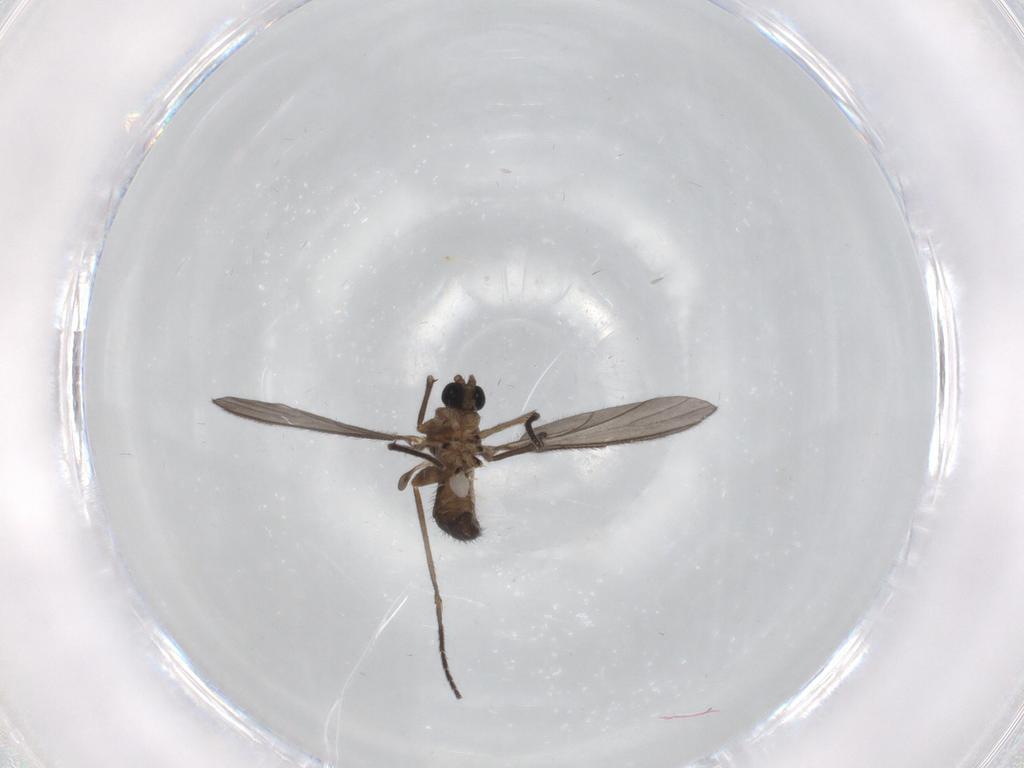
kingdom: Animalia
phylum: Arthropoda
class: Insecta
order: Diptera
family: Limoniidae
